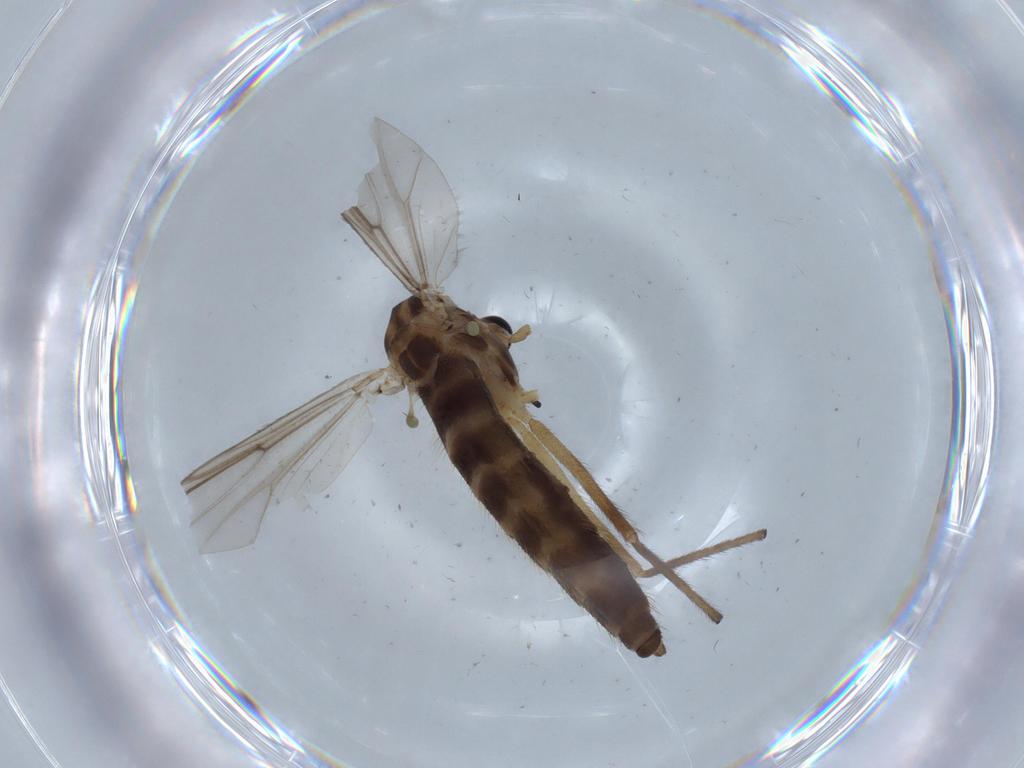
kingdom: Animalia
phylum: Arthropoda
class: Insecta
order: Diptera
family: Chironomidae
